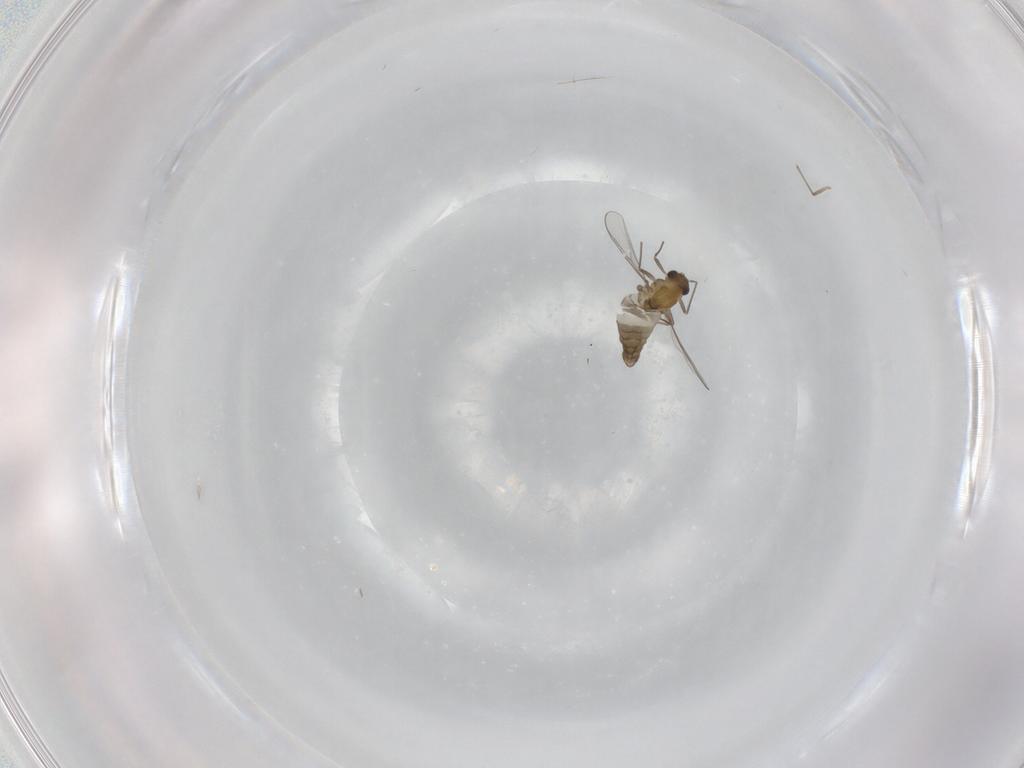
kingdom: Animalia
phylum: Arthropoda
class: Insecta
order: Diptera
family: Chironomidae
